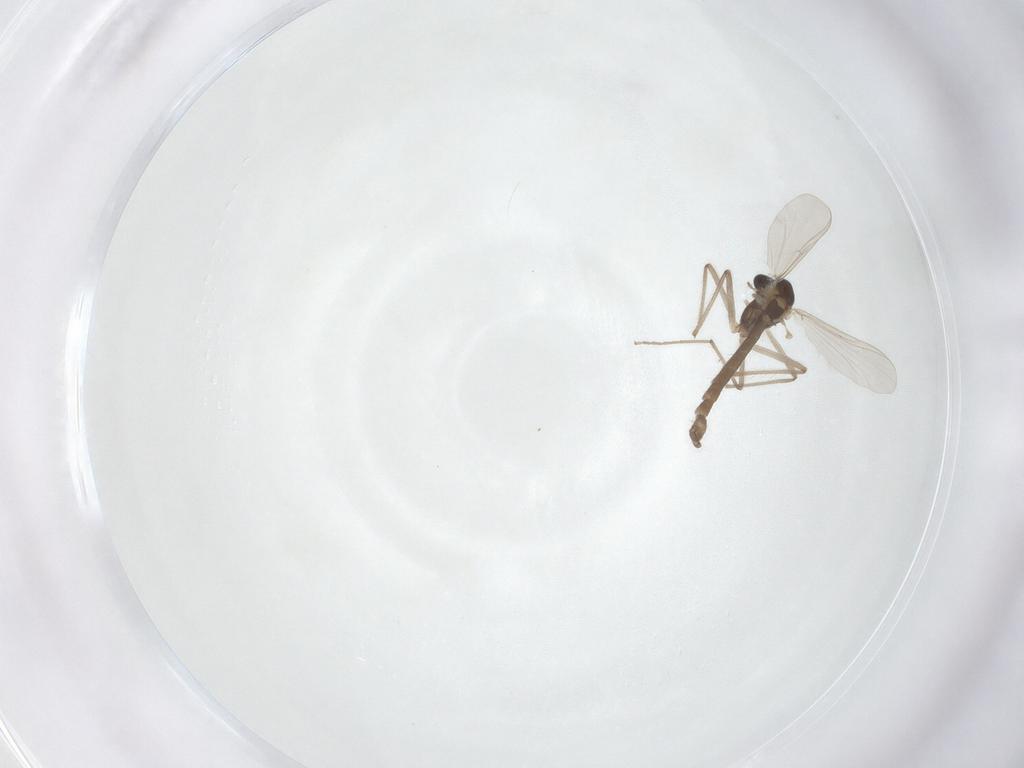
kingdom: Animalia
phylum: Arthropoda
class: Insecta
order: Diptera
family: Chironomidae
